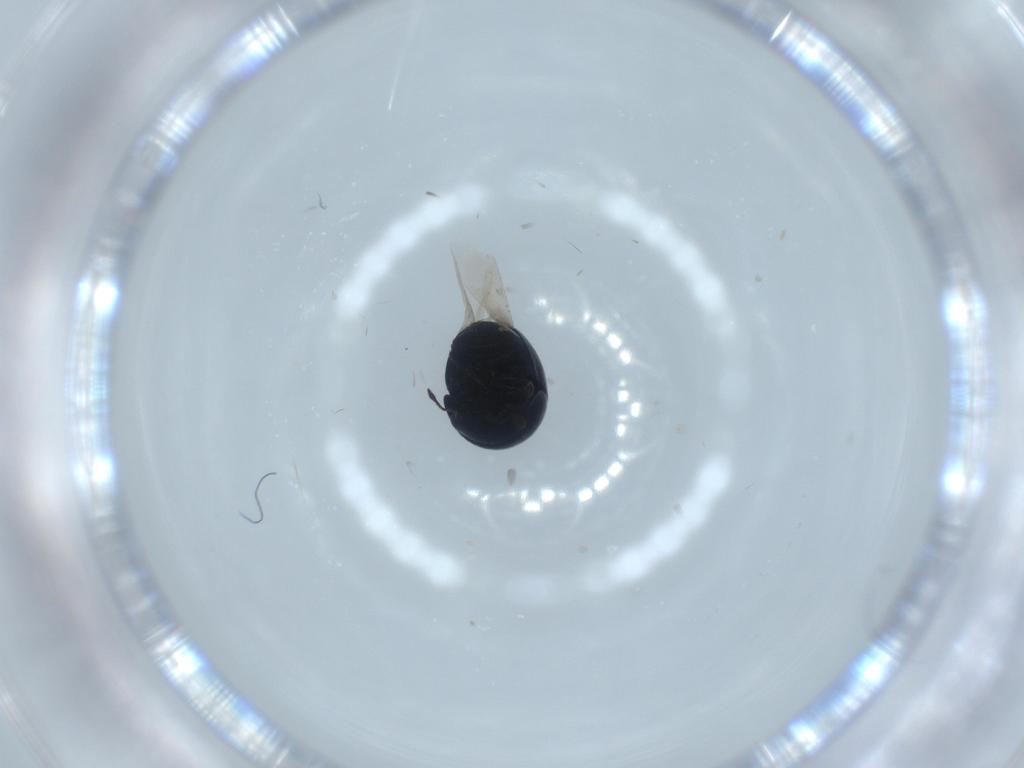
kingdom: Animalia
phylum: Arthropoda
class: Insecta
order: Coleoptera
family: Cybocephalidae
